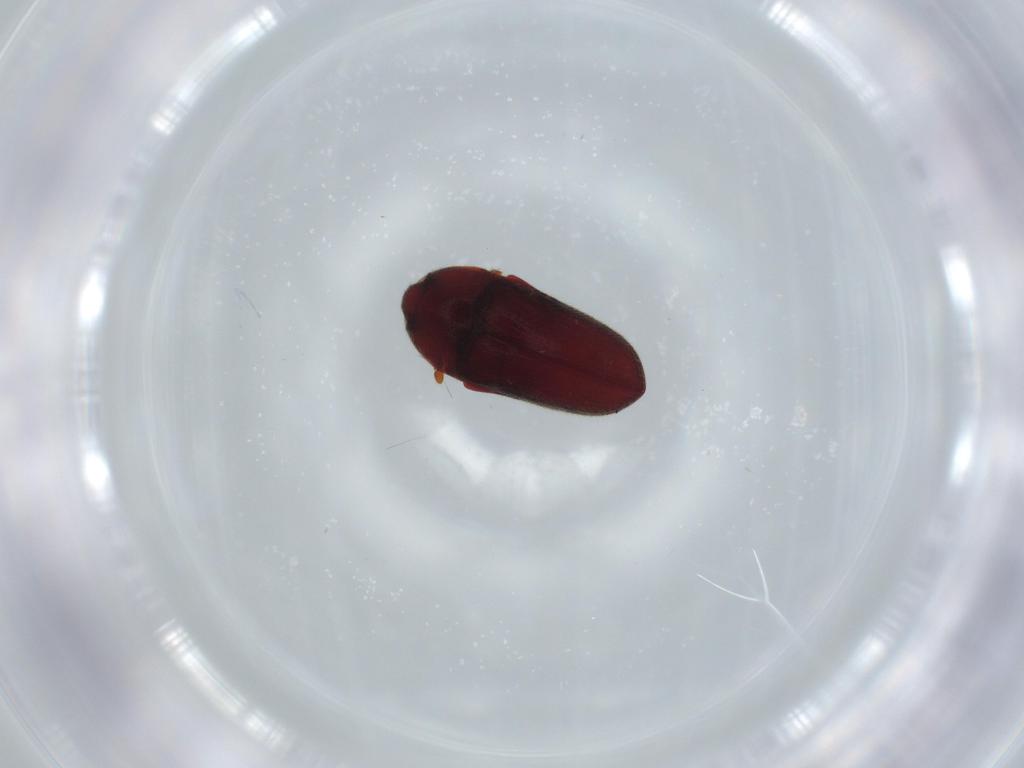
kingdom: Animalia
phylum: Arthropoda
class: Insecta
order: Coleoptera
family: Throscidae
